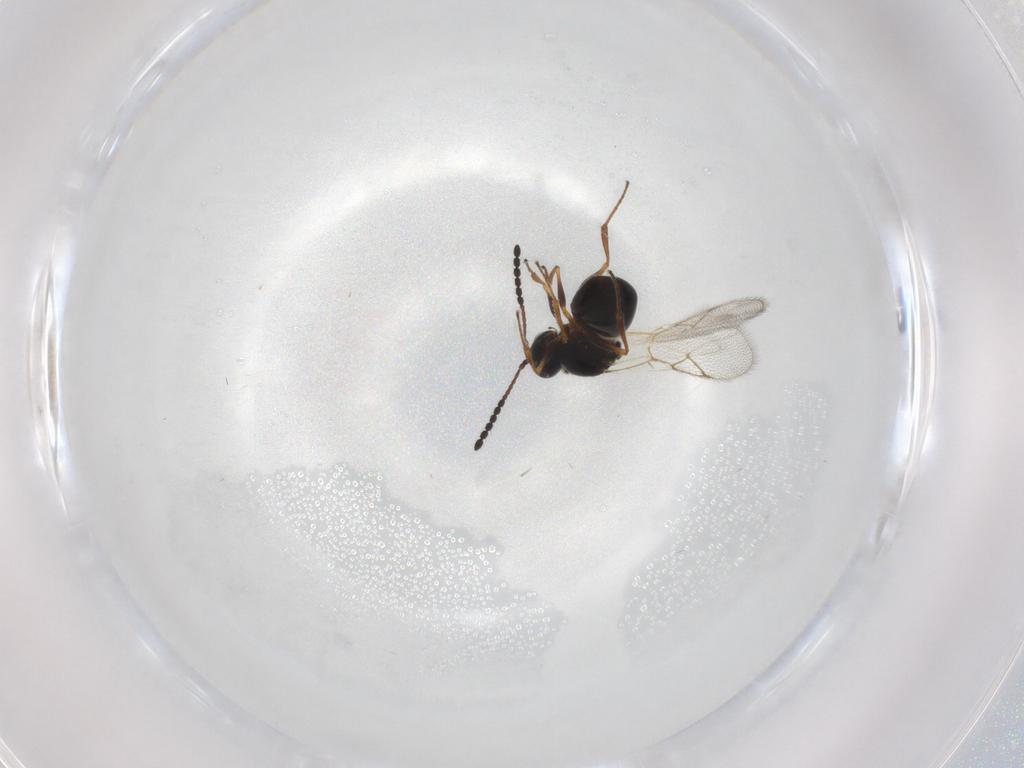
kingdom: Animalia
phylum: Arthropoda
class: Insecta
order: Hymenoptera
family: Figitidae
